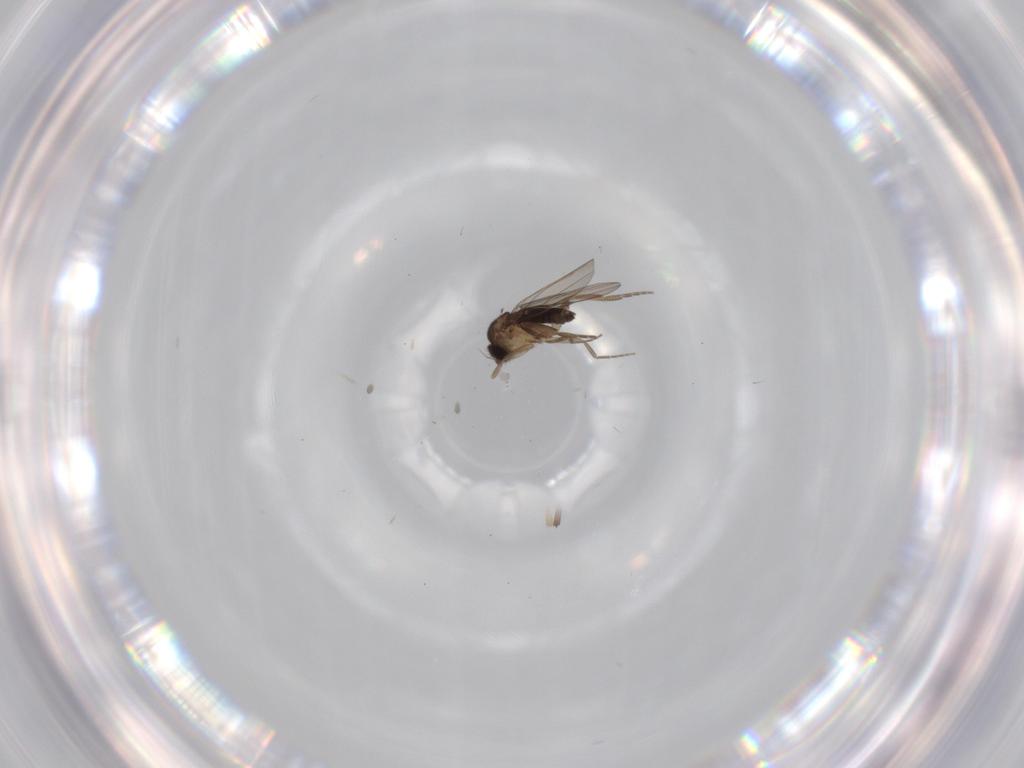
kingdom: Animalia
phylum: Arthropoda
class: Insecta
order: Diptera
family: Phoridae
